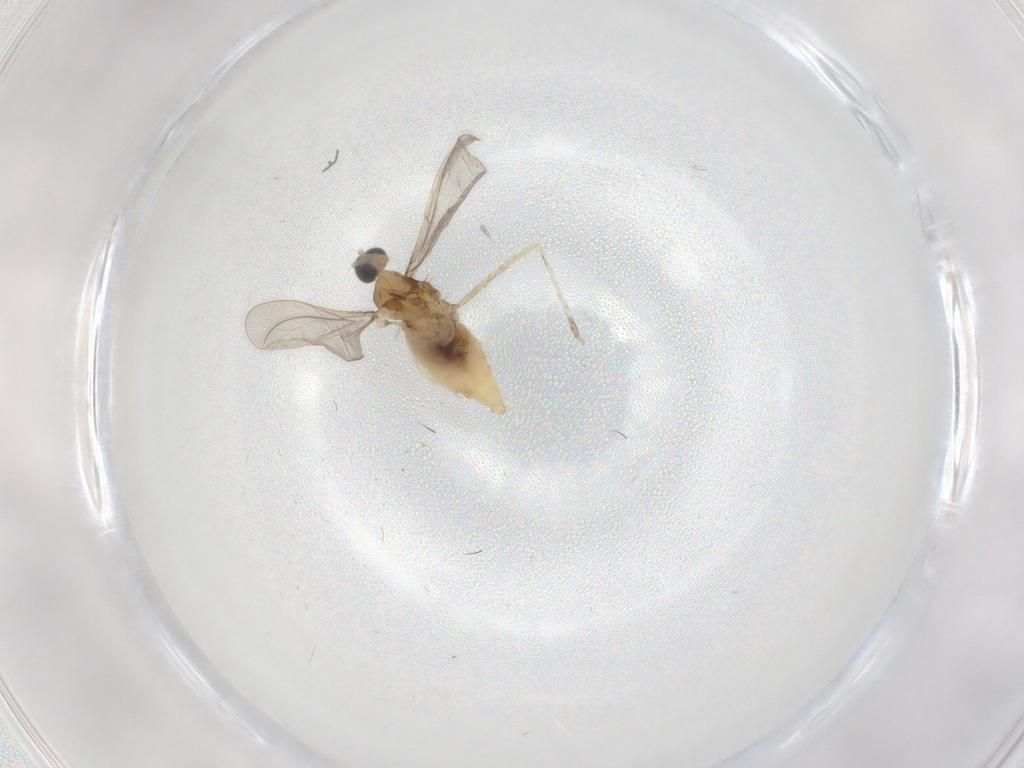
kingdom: Animalia
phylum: Arthropoda
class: Insecta
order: Diptera
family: Cecidomyiidae
